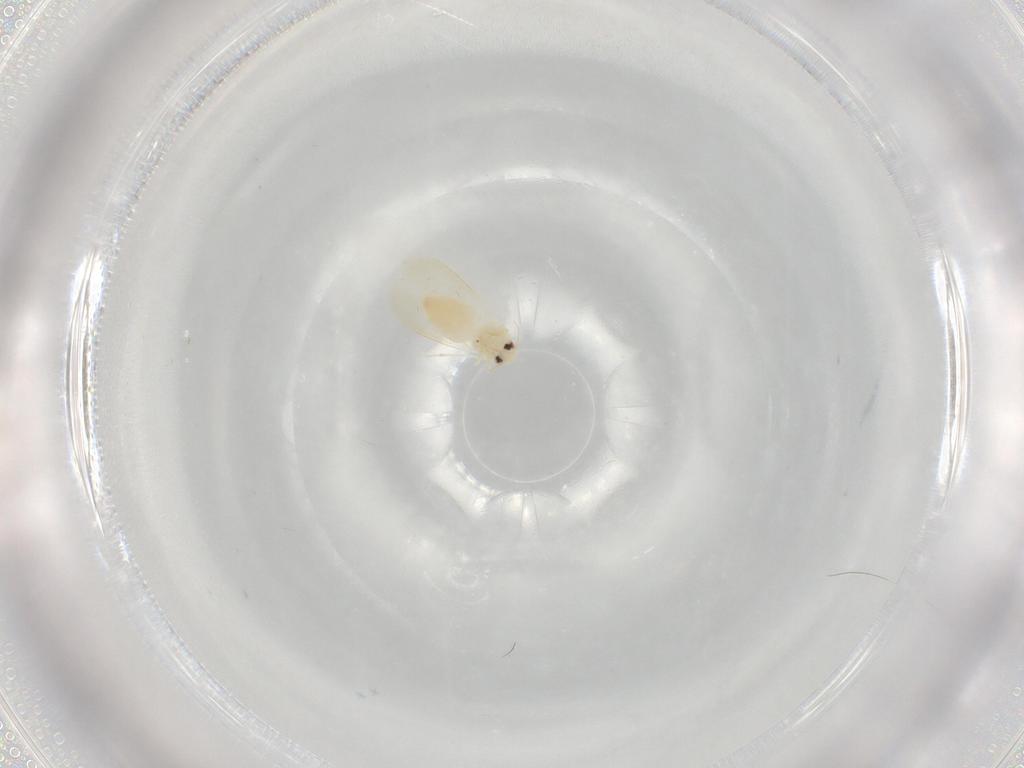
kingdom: Animalia
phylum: Arthropoda
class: Insecta
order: Hemiptera
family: Aleyrodidae
